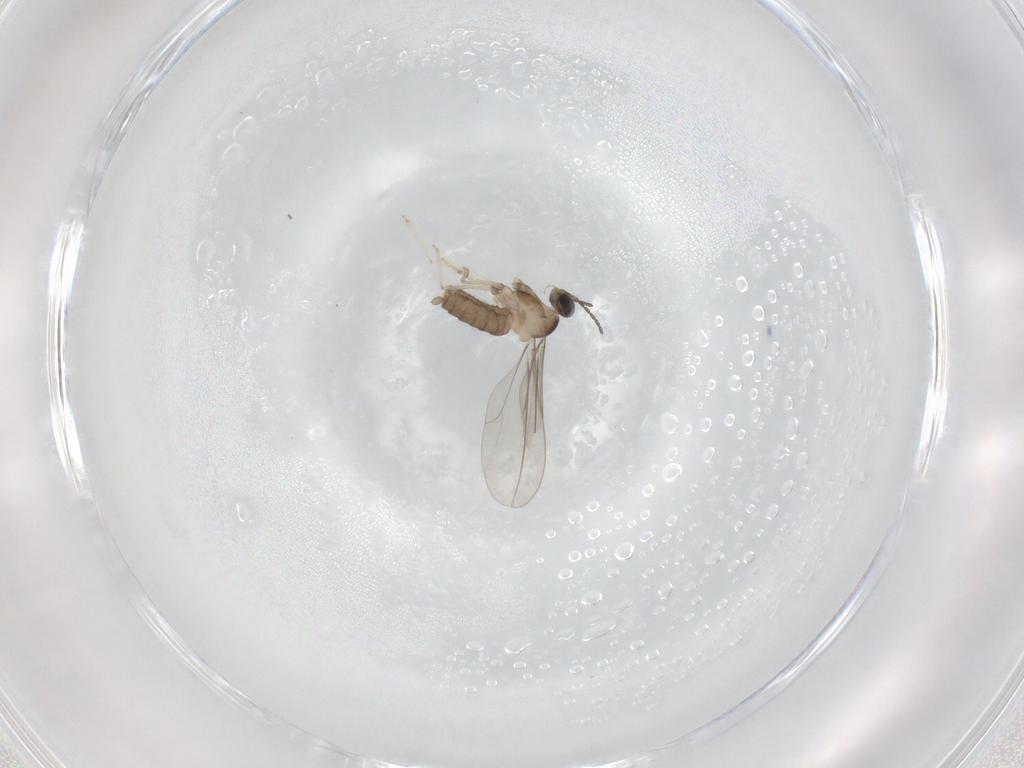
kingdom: Animalia
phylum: Arthropoda
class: Insecta
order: Diptera
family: Cecidomyiidae
